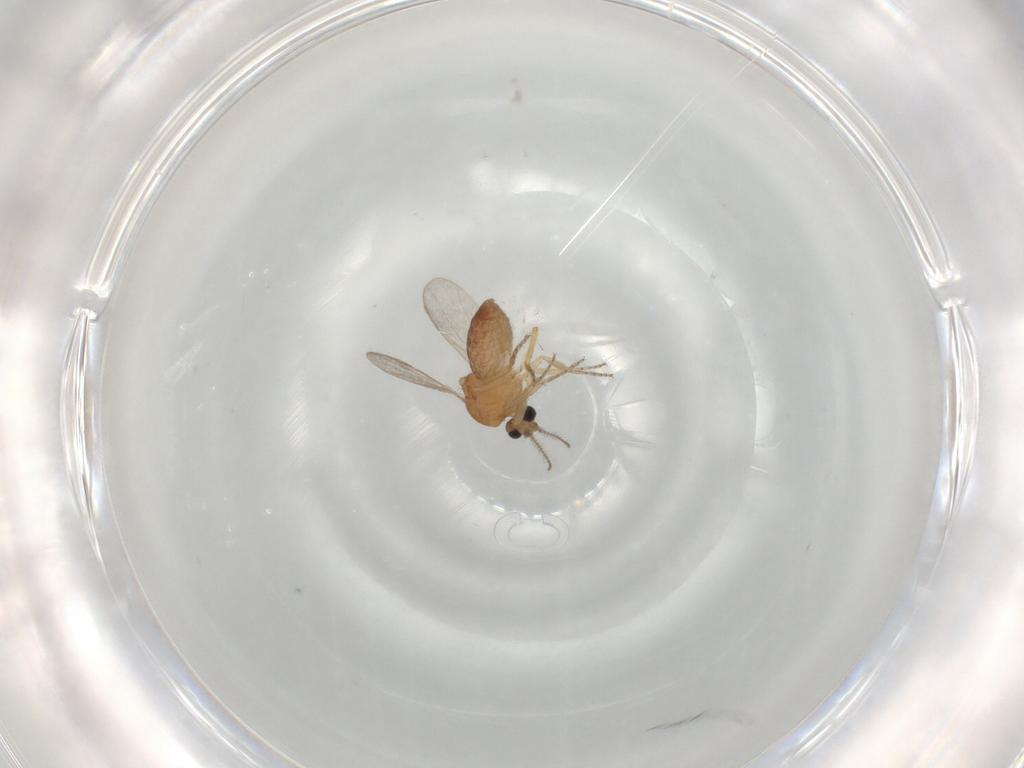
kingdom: Animalia
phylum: Arthropoda
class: Insecta
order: Diptera
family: Ceratopogonidae
